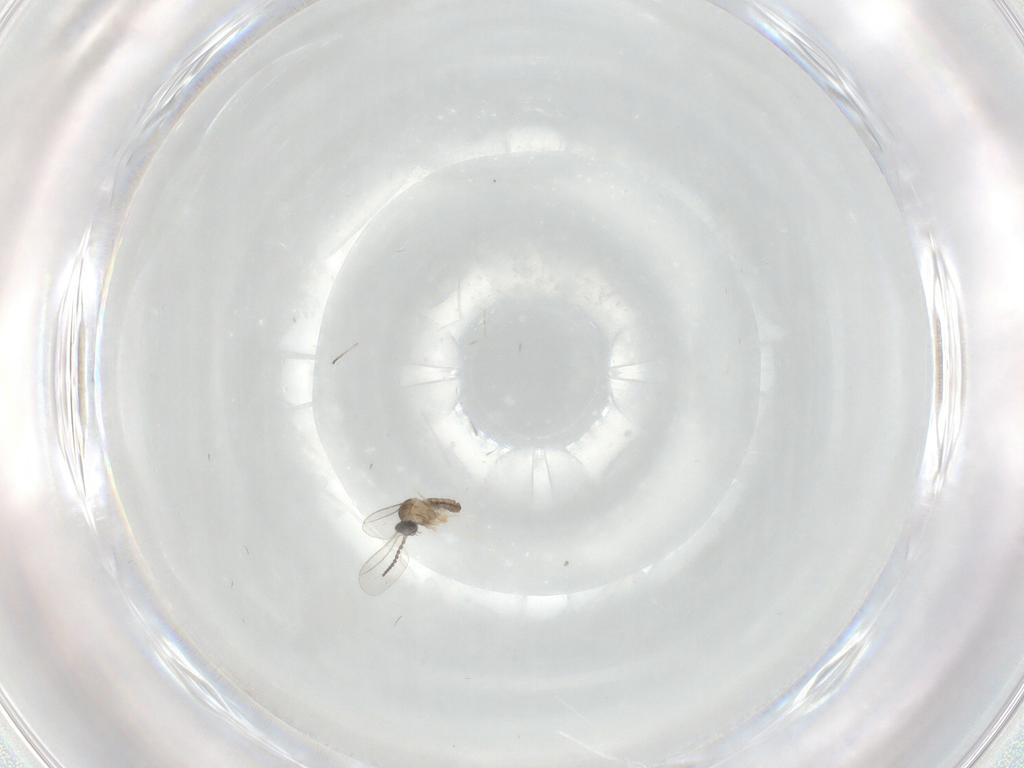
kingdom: Animalia
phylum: Arthropoda
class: Insecta
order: Diptera
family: Cecidomyiidae
